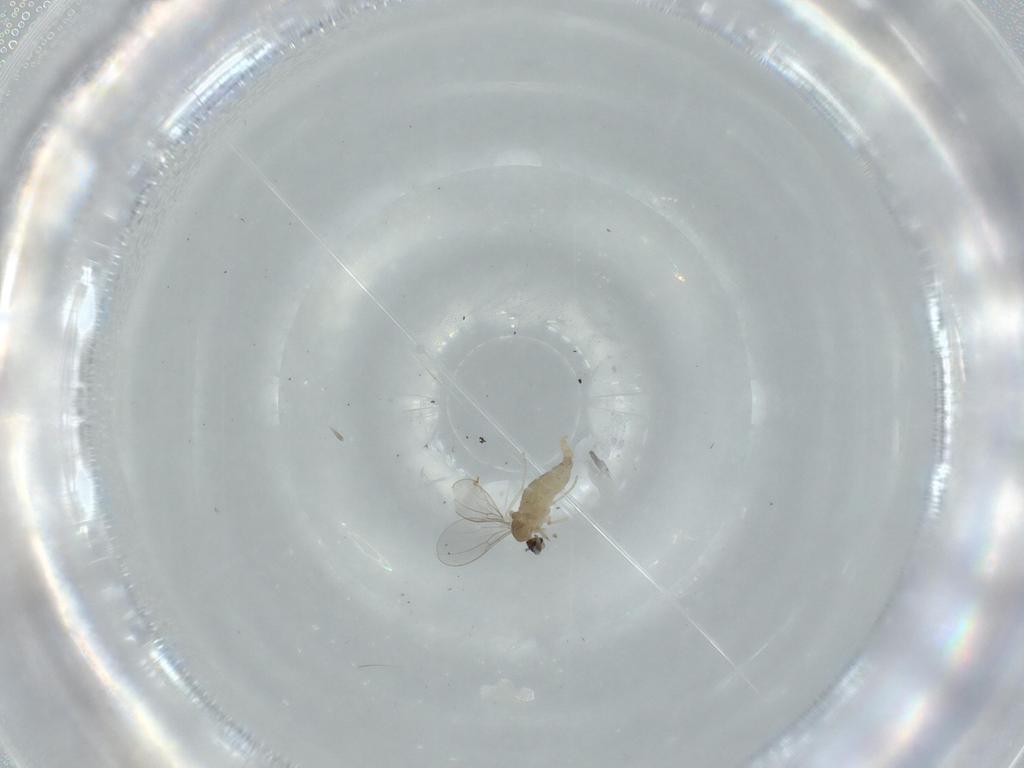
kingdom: Animalia
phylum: Arthropoda
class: Insecta
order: Diptera
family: Cecidomyiidae
